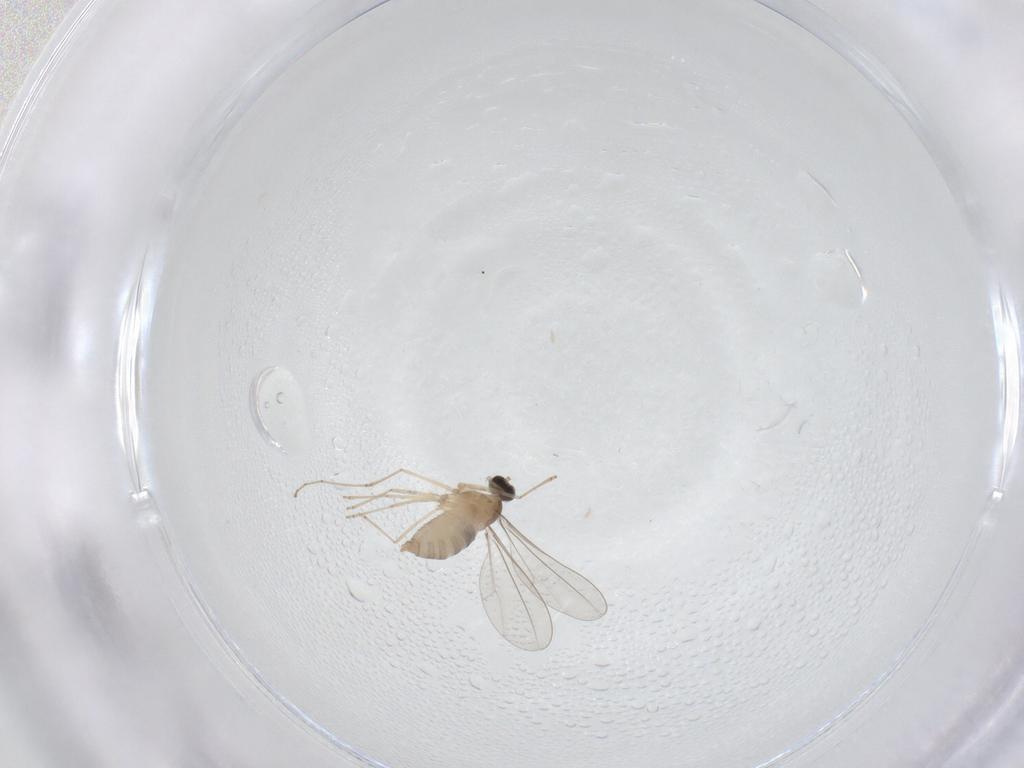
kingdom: Animalia
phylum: Arthropoda
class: Insecta
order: Diptera
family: Cecidomyiidae
